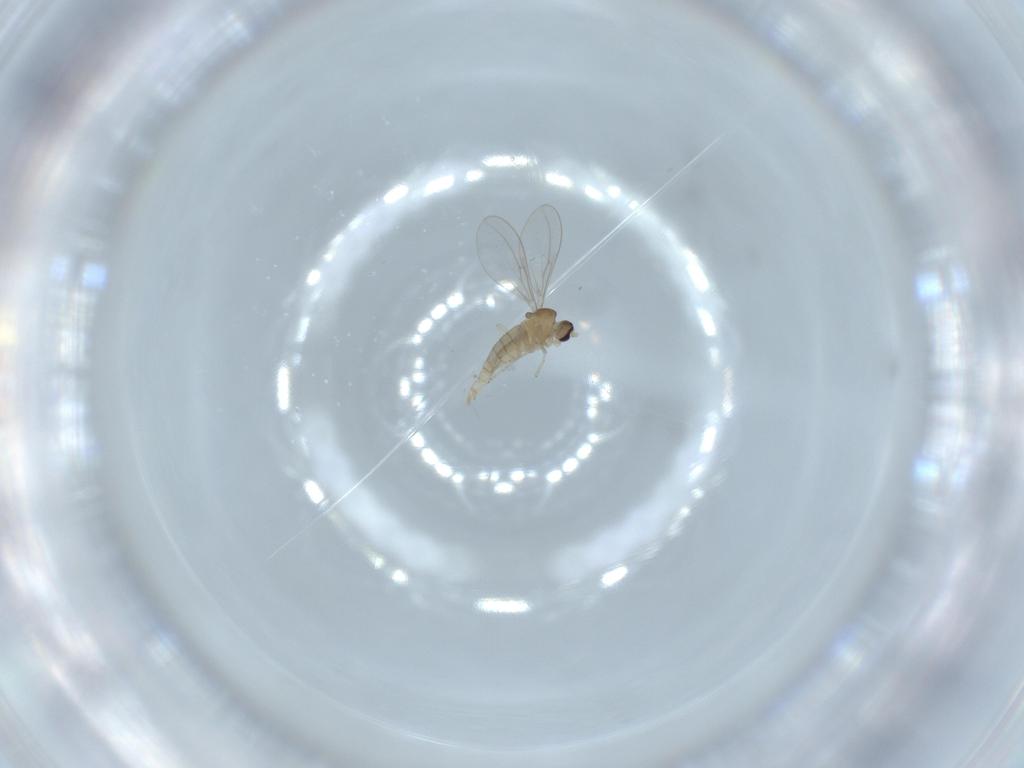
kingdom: Animalia
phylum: Arthropoda
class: Insecta
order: Diptera
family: Cecidomyiidae
